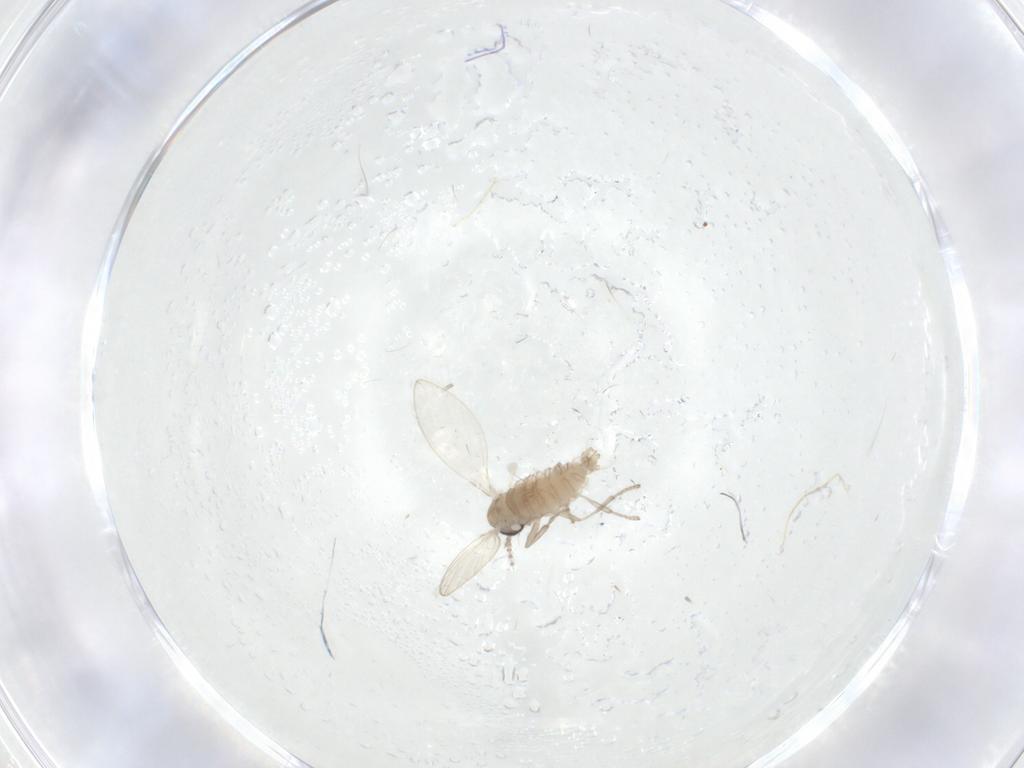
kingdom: Animalia
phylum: Arthropoda
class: Insecta
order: Diptera
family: Psychodidae
